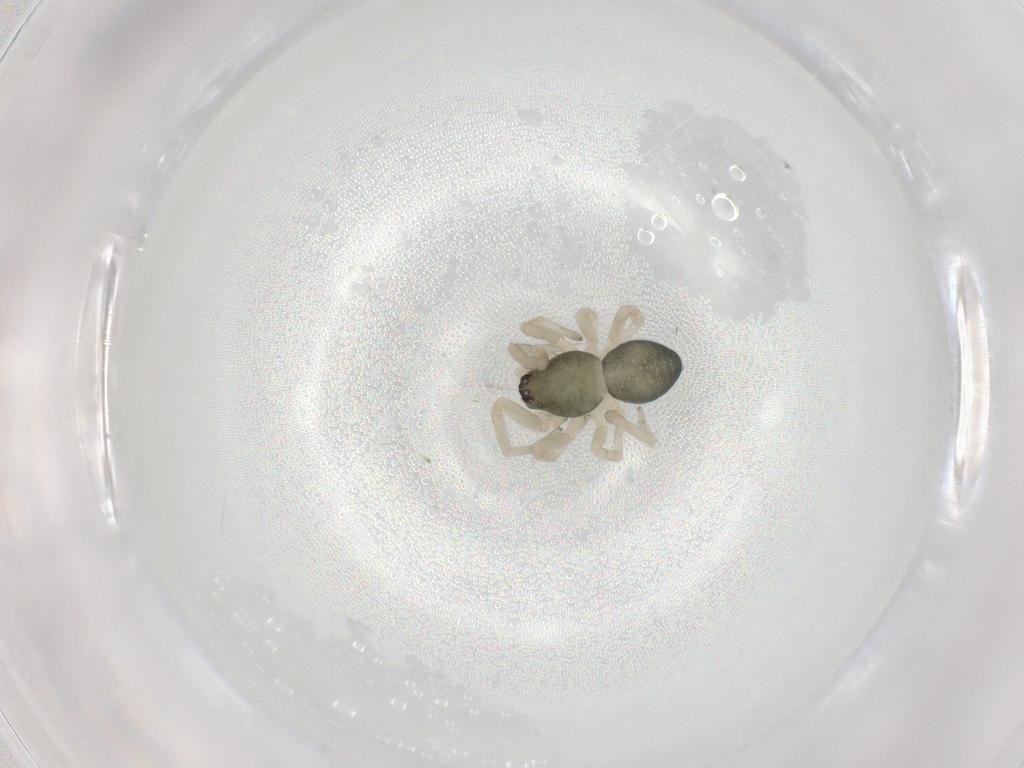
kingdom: Animalia
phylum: Arthropoda
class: Arachnida
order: Araneae
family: Trachelidae
